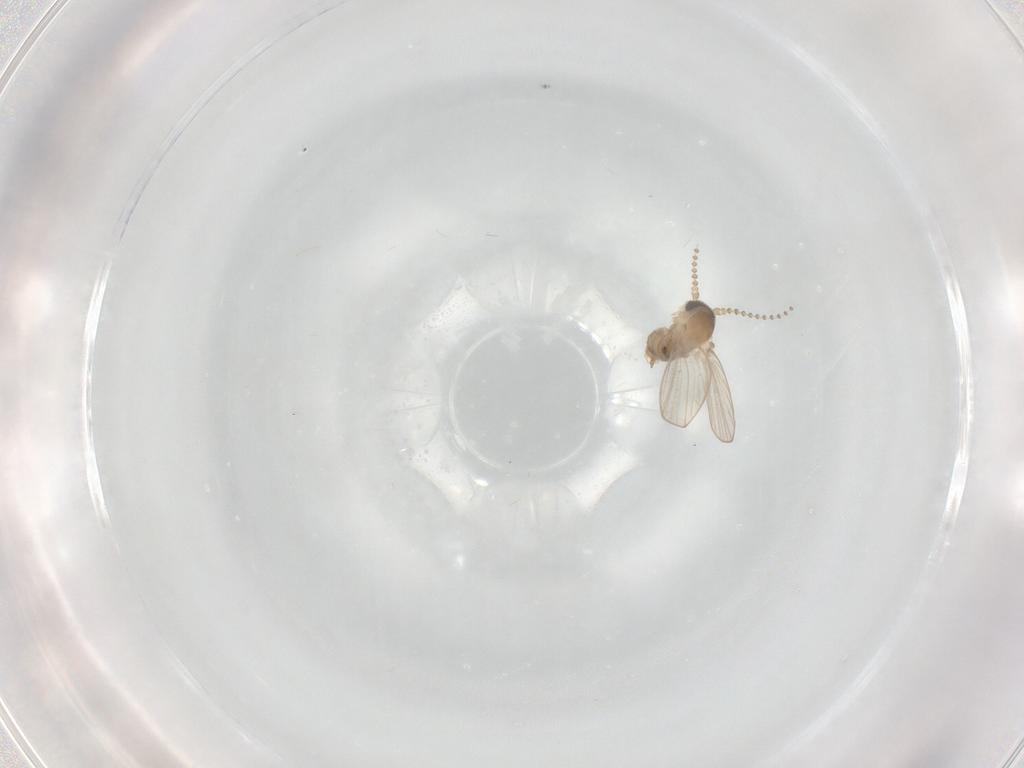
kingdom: Animalia
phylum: Arthropoda
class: Insecta
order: Diptera
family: Psychodidae
